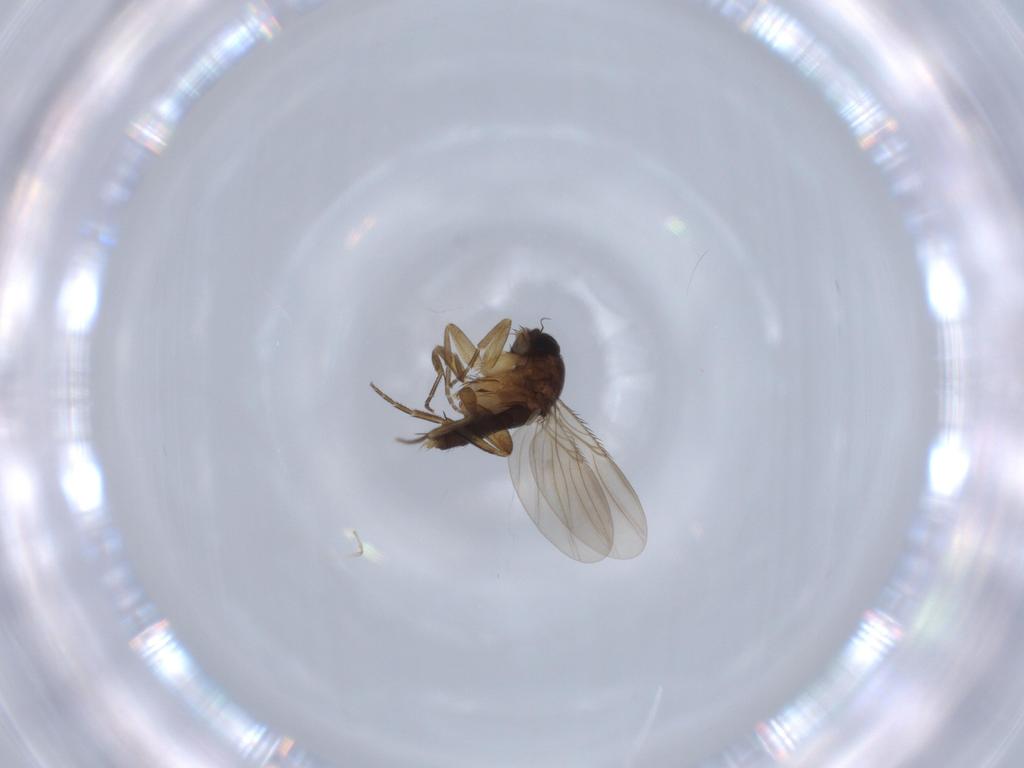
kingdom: Animalia
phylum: Arthropoda
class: Insecta
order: Diptera
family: Phoridae
